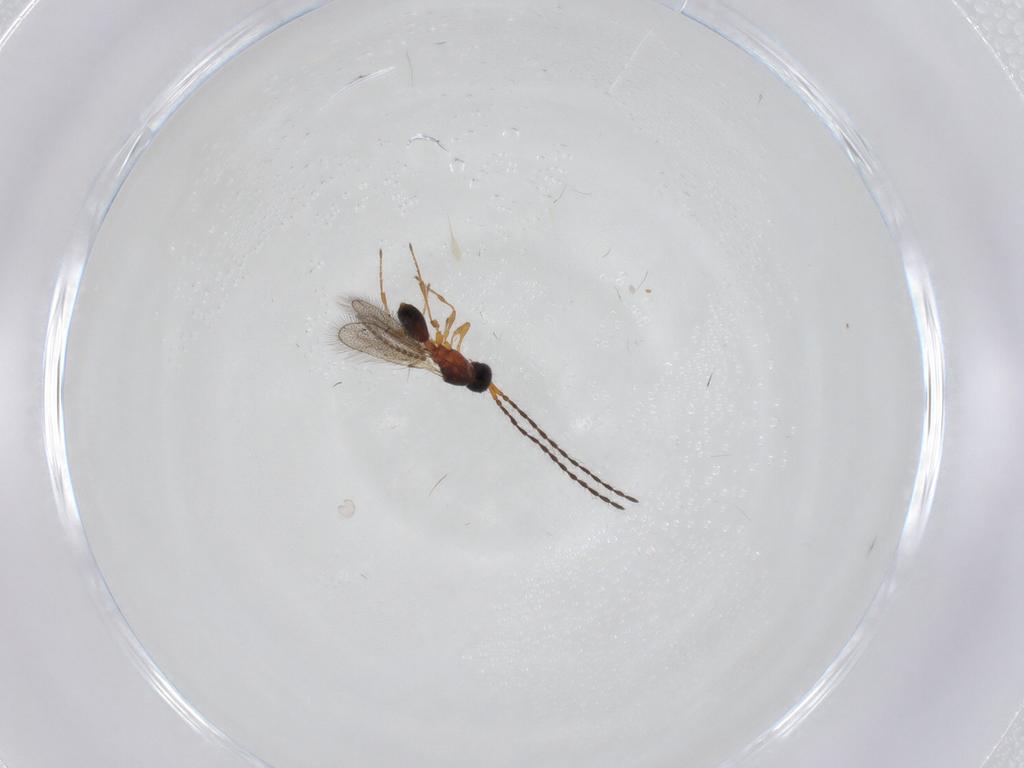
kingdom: Animalia
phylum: Arthropoda
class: Insecta
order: Hymenoptera
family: Diapriidae
